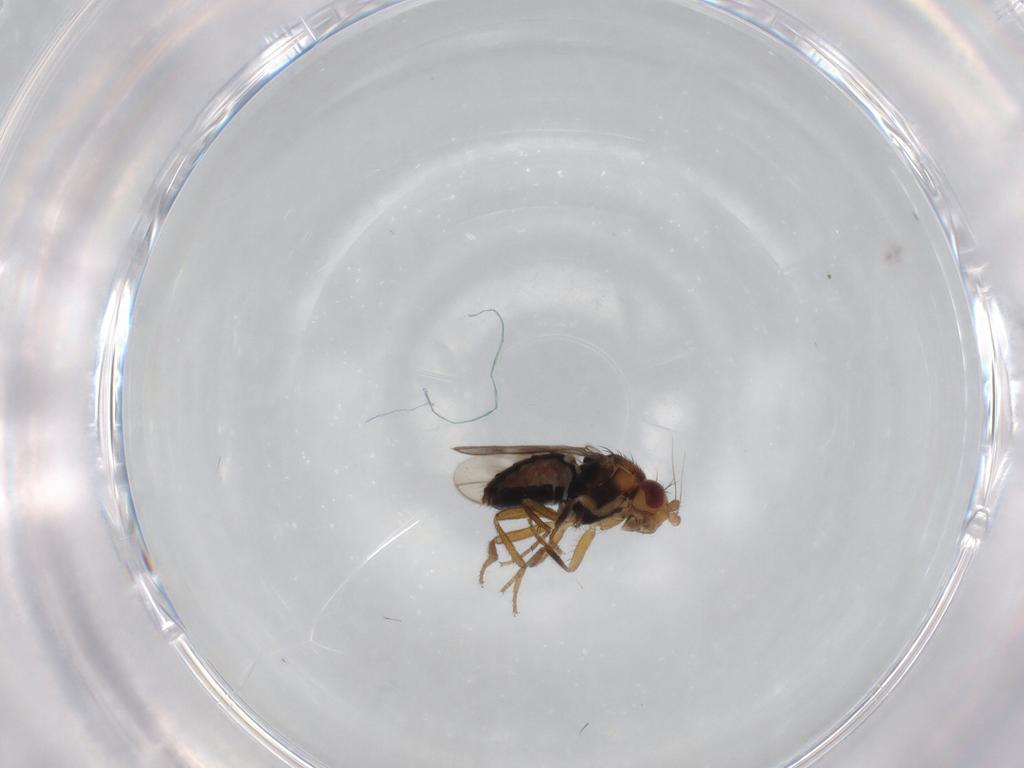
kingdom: Animalia
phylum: Arthropoda
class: Insecta
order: Diptera
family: Sphaeroceridae
